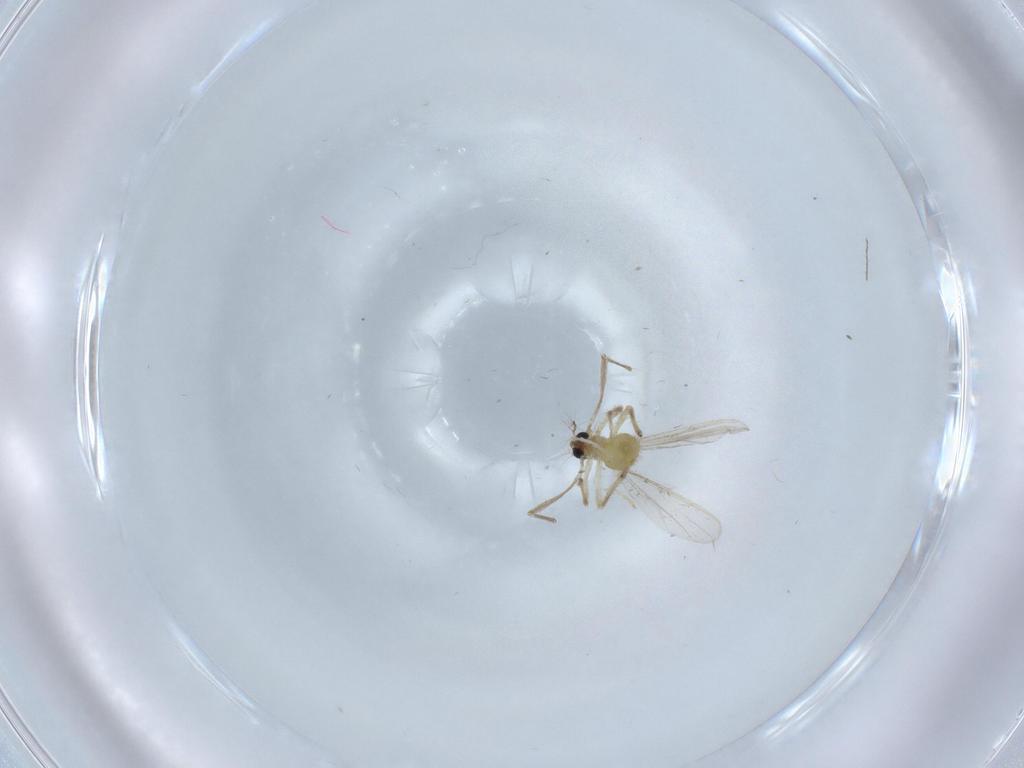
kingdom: Animalia
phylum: Arthropoda
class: Insecta
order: Diptera
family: Chironomidae
